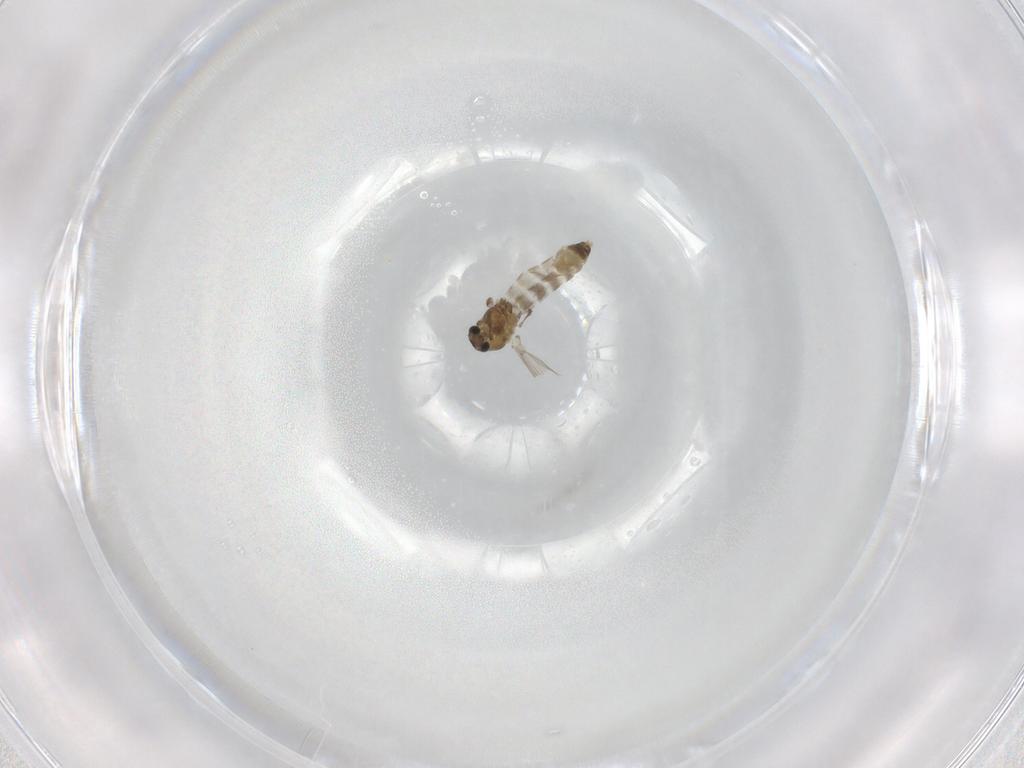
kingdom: Animalia
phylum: Arthropoda
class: Insecta
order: Diptera
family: Chironomidae
